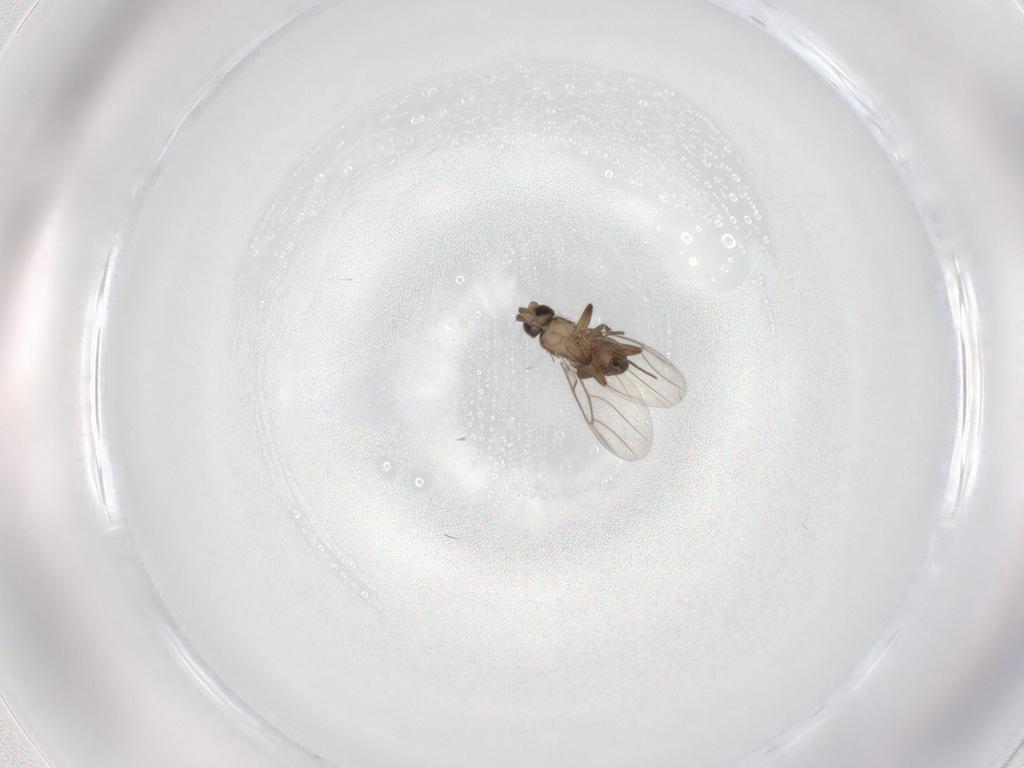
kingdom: Animalia
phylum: Arthropoda
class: Insecta
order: Diptera
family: Phoridae
